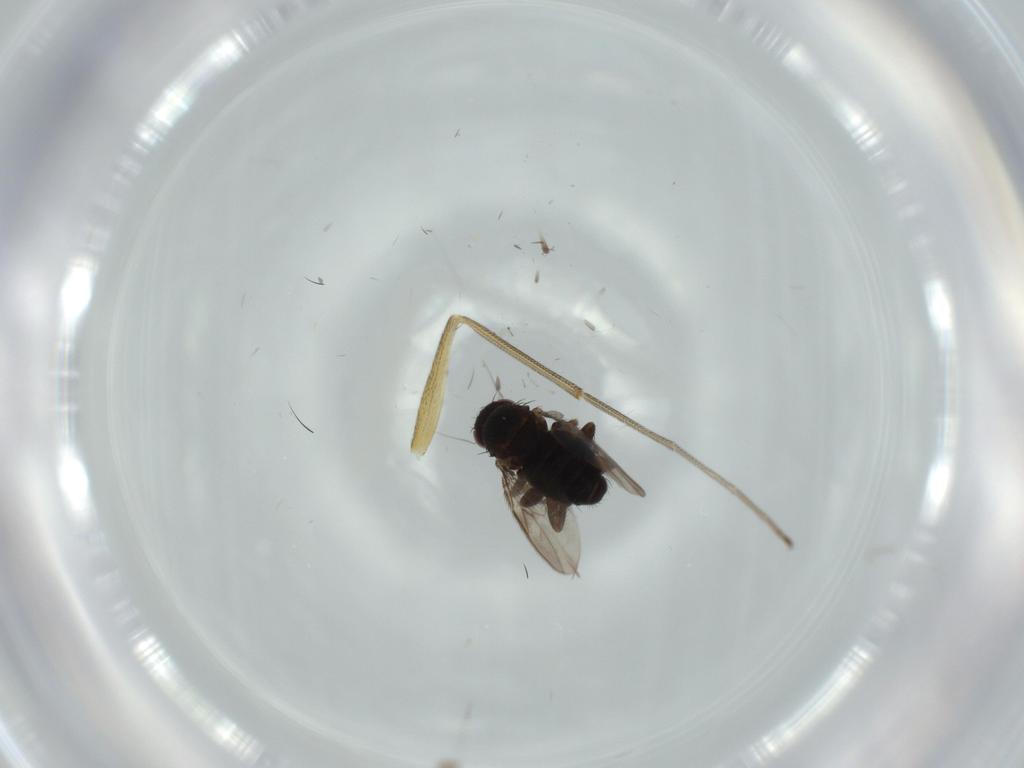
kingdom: Animalia
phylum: Arthropoda
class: Insecta
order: Diptera
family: Dolichopodidae
